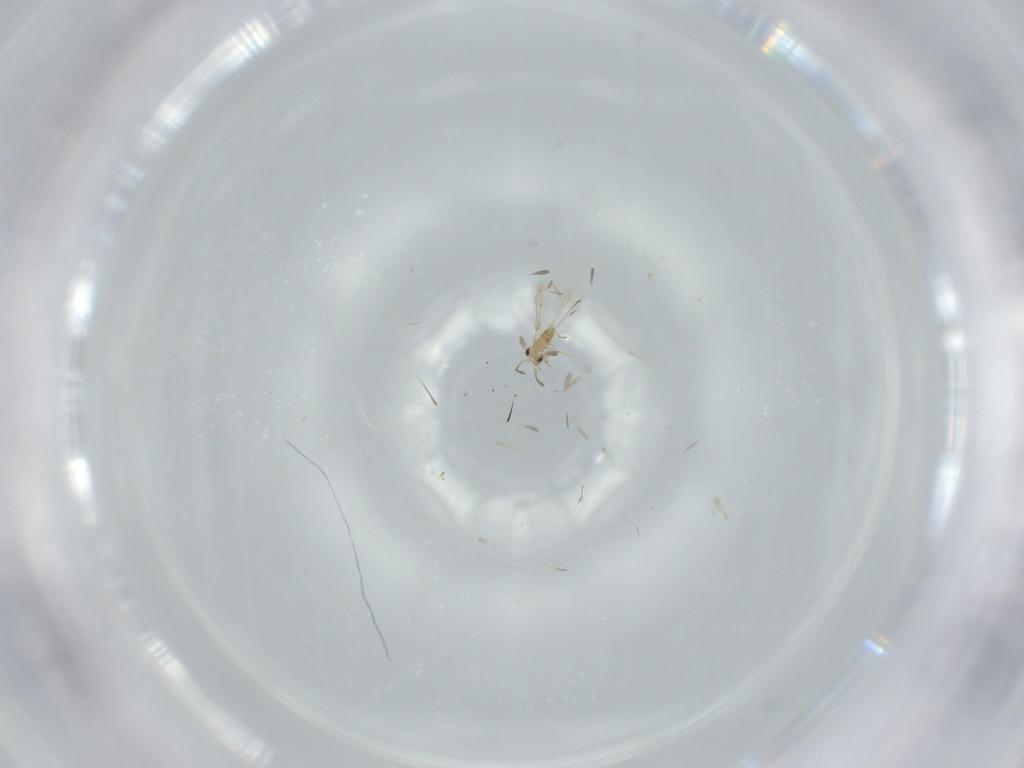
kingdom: Animalia
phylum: Arthropoda
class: Insecta
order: Hymenoptera
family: Mymaridae
